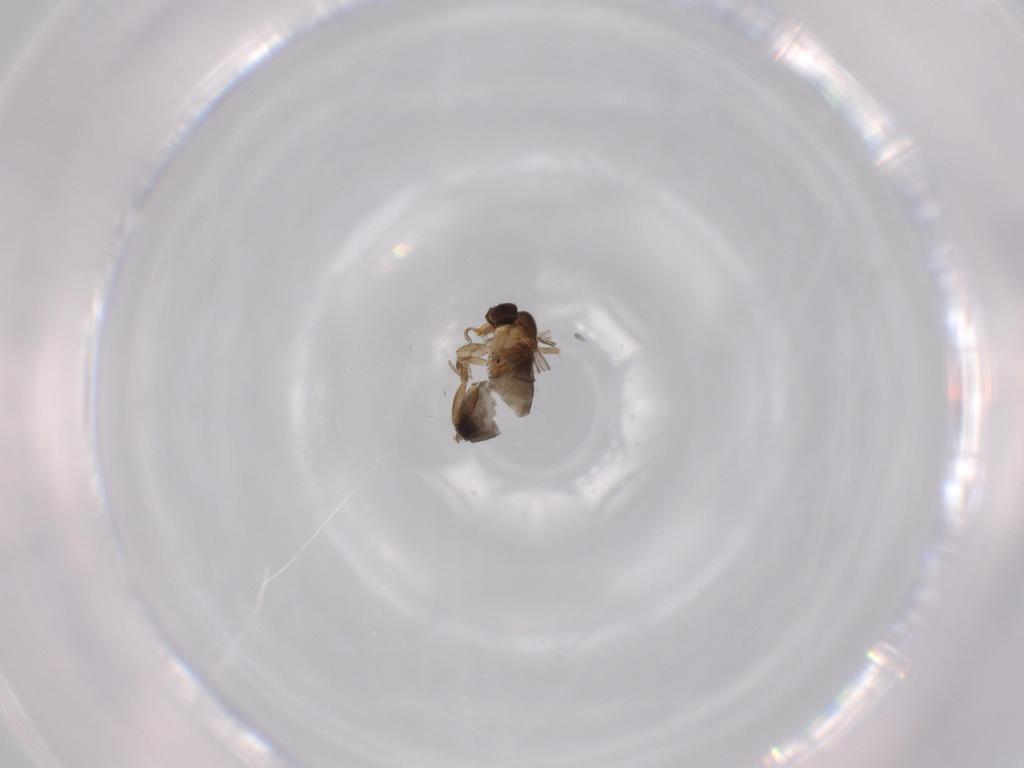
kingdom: Animalia
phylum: Arthropoda
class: Insecta
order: Diptera
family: Phoridae
